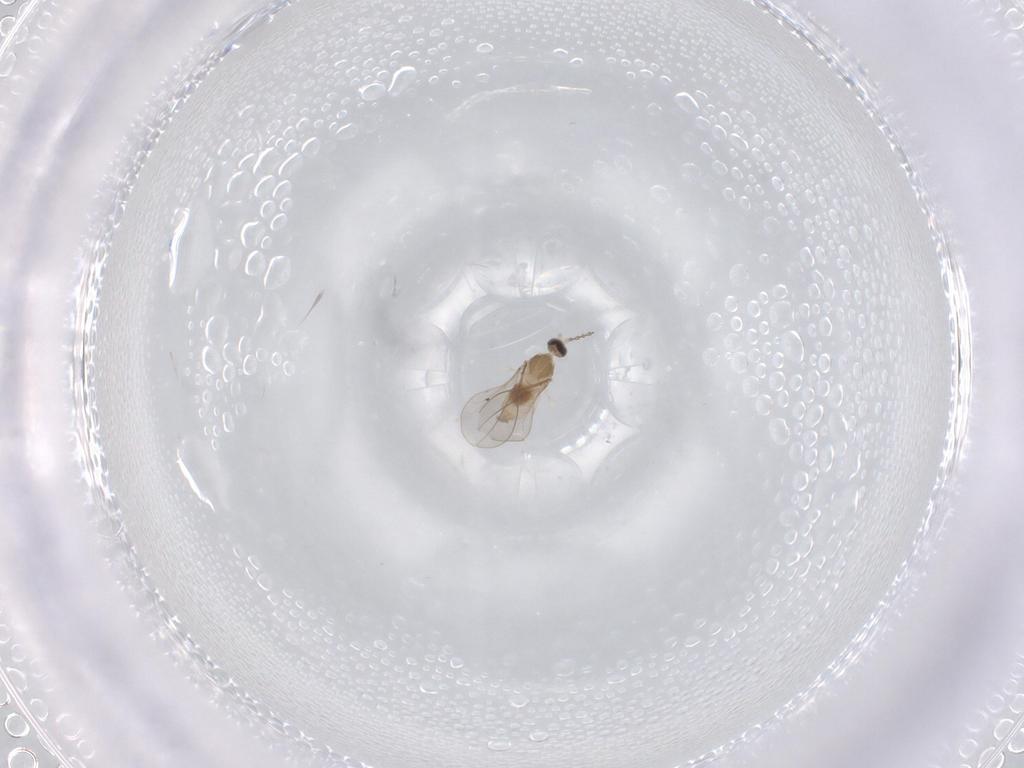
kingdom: Animalia
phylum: Arthropoda
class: Insecta
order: Diptera
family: Cecidomyiidae
